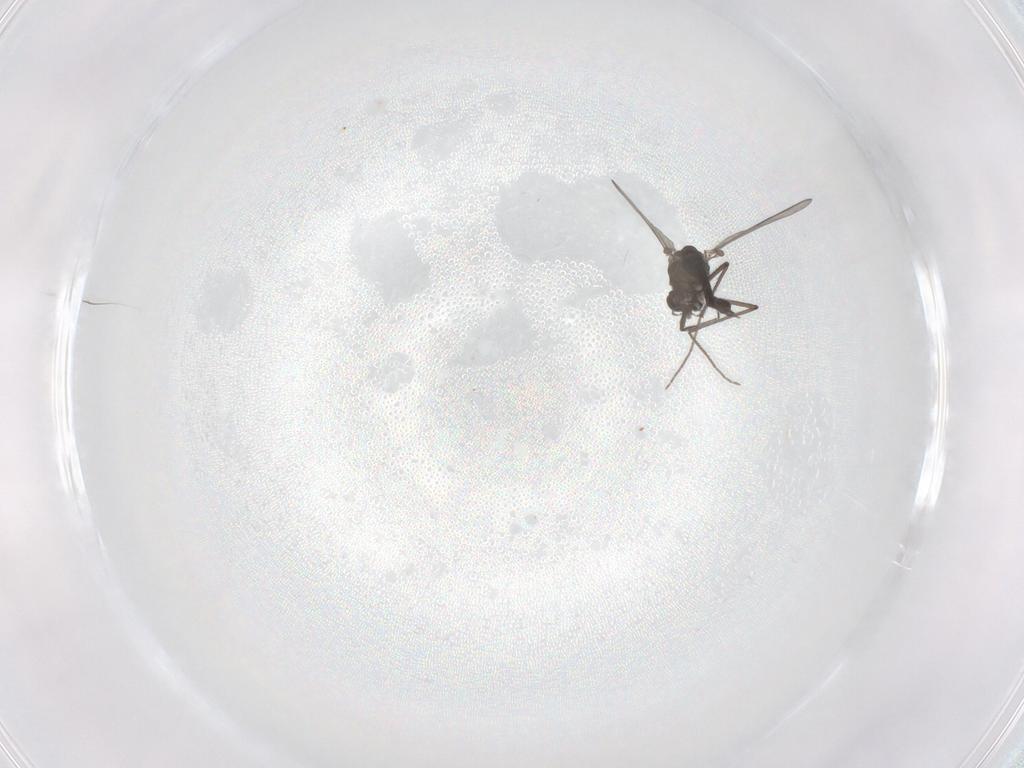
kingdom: Animalia
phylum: Arthropoda
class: Insecta
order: Diptera
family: Chironomidae
